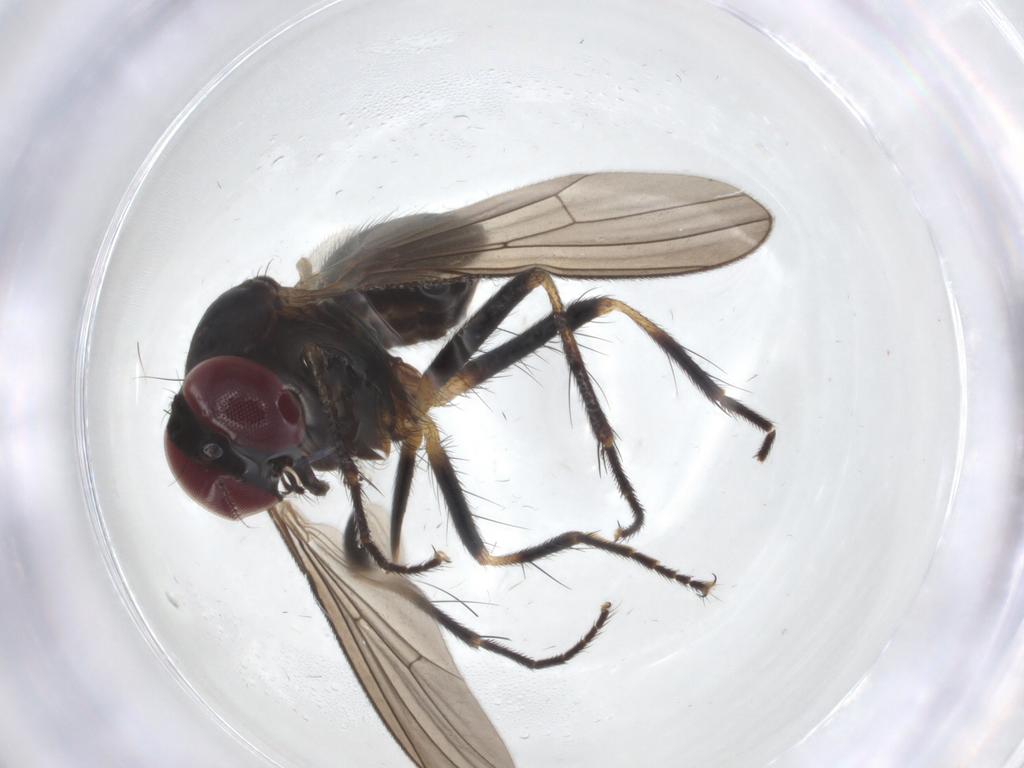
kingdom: Animalia
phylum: Arthropoda
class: Insecta
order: Diptera
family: Anthomyiidae
